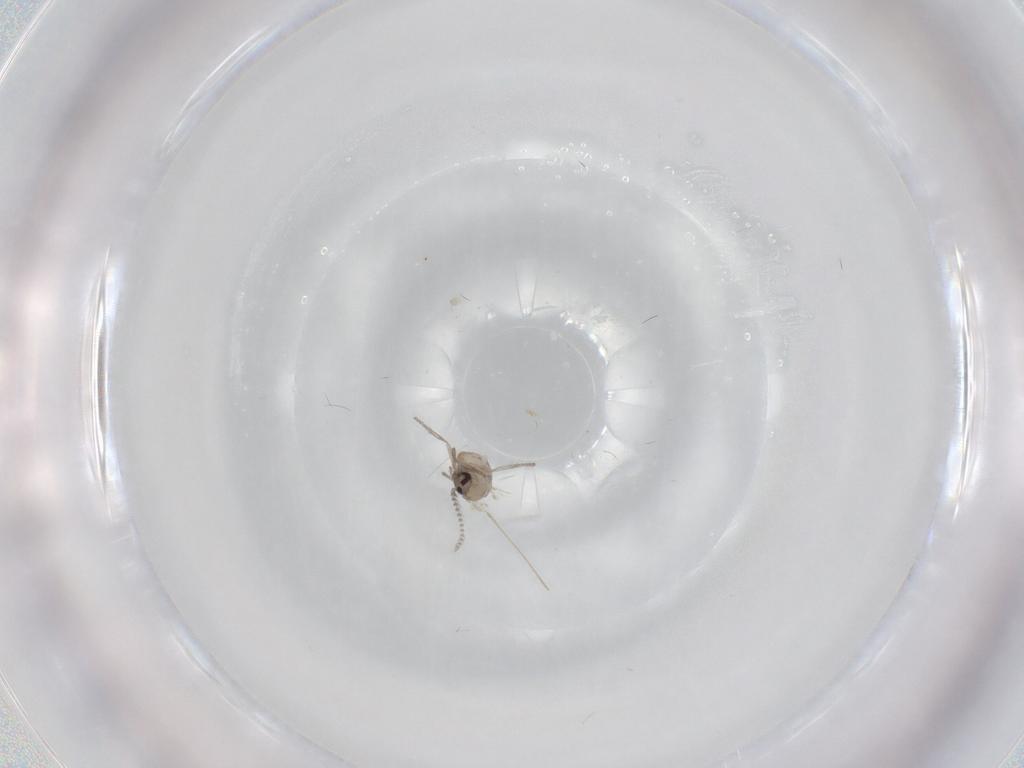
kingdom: Animalia
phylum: Arthropoda
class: Insecta
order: Diptera
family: Psychodidae
